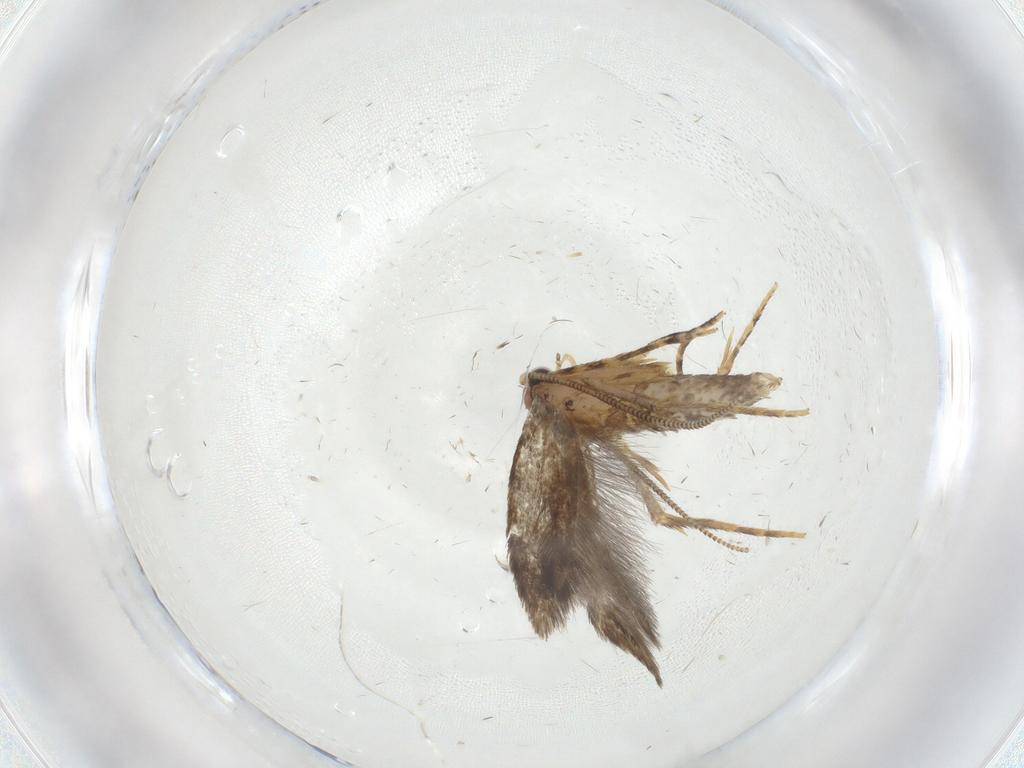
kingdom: Animalia
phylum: Arthropoda
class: Insecta
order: Lepidoptera
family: Tineidae
